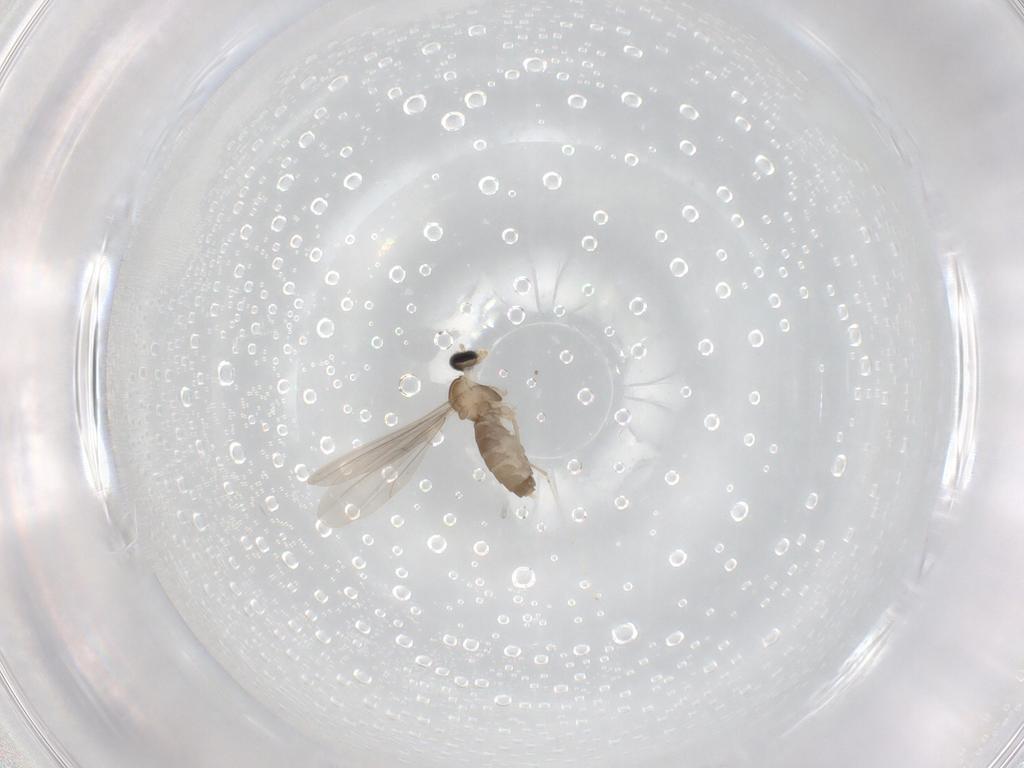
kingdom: Animalia
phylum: Arthropoda
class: Insecta
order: Diptera
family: Cecidomyiidae
